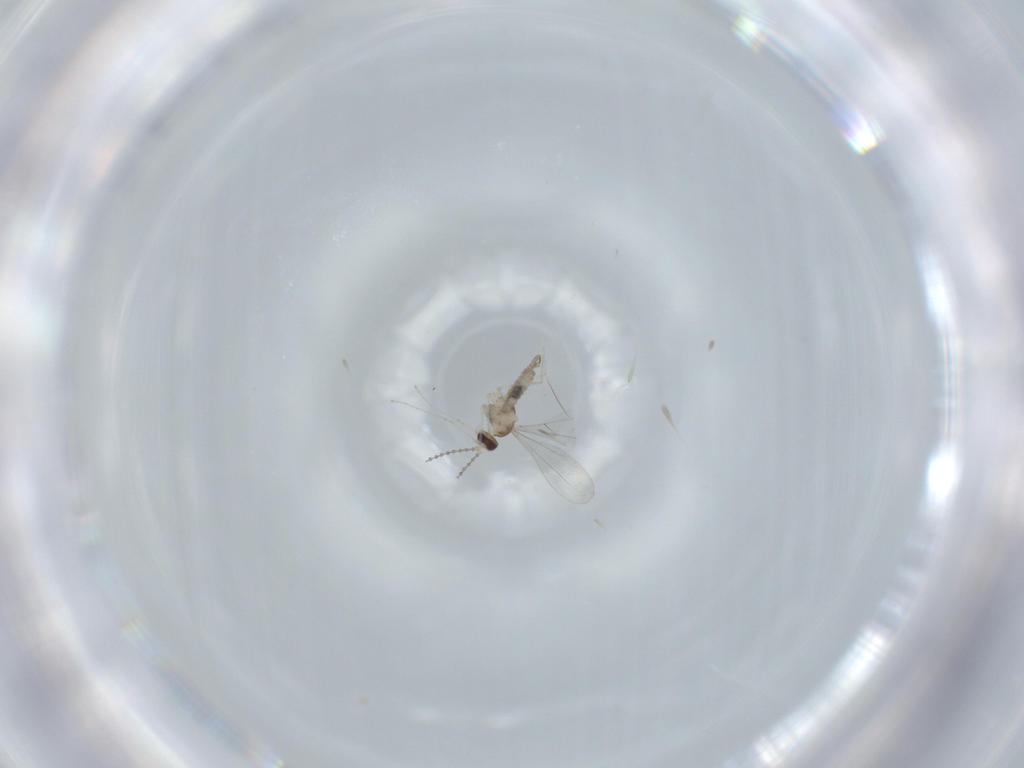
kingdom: Animalia
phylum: Arthropoda
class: Insecta
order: Diptera
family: Cecidomyiidae
